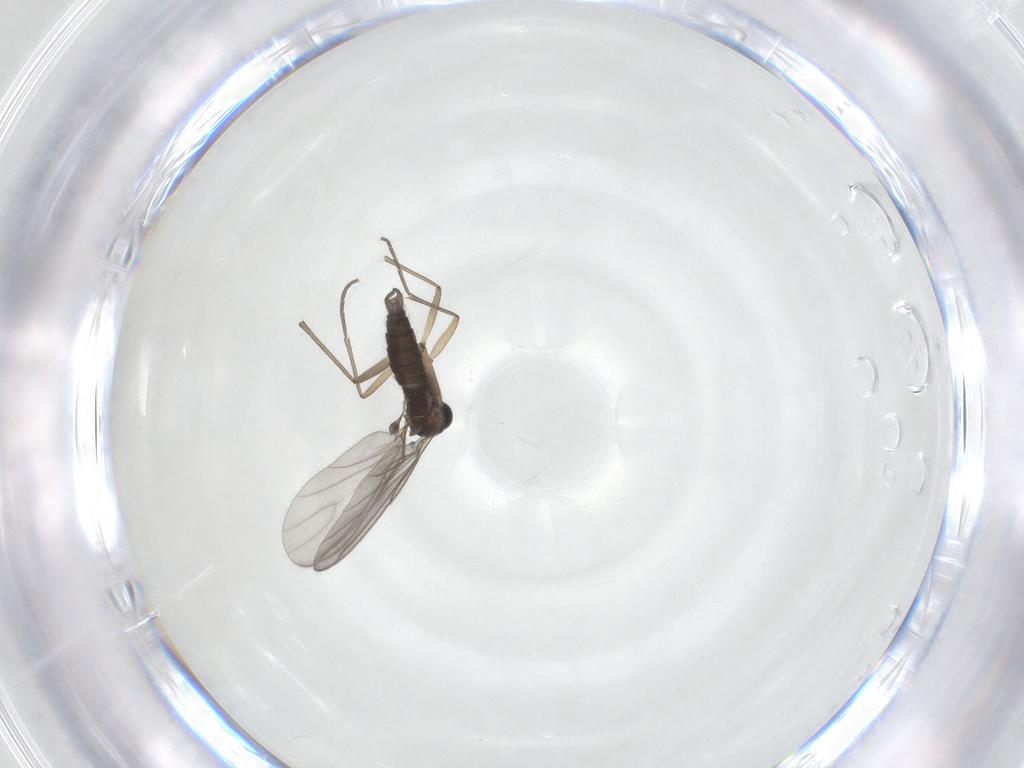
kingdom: Animalia
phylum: Arthropoda
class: Insecta
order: Diptera
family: Sciaridae
